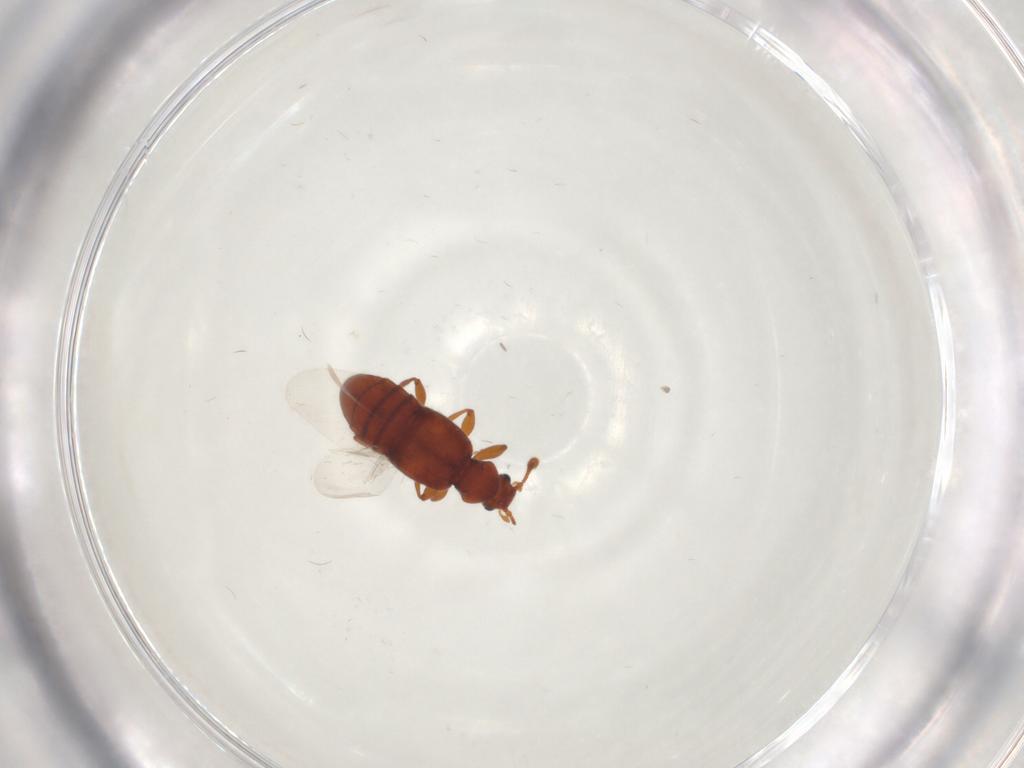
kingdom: Animalia
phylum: Arthropoda
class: Insecta
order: Coleoptera
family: Staphylinidae
